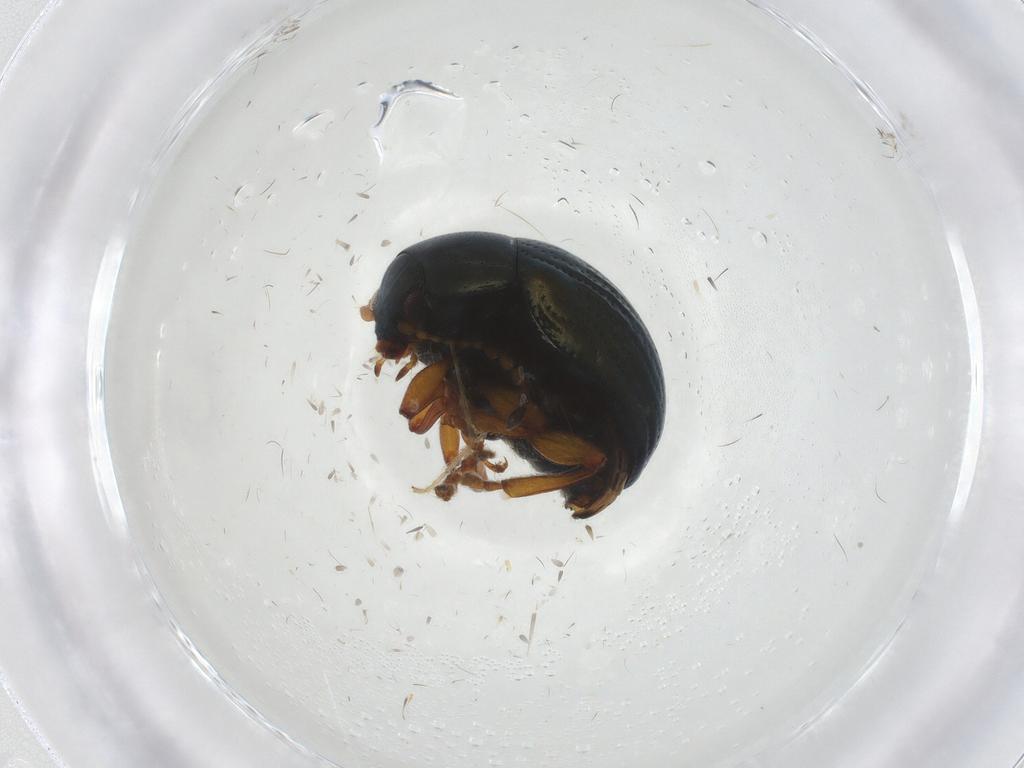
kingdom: Animalia
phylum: Arthropoda
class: Insecta
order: Coleoptera
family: Chrysomelidae
